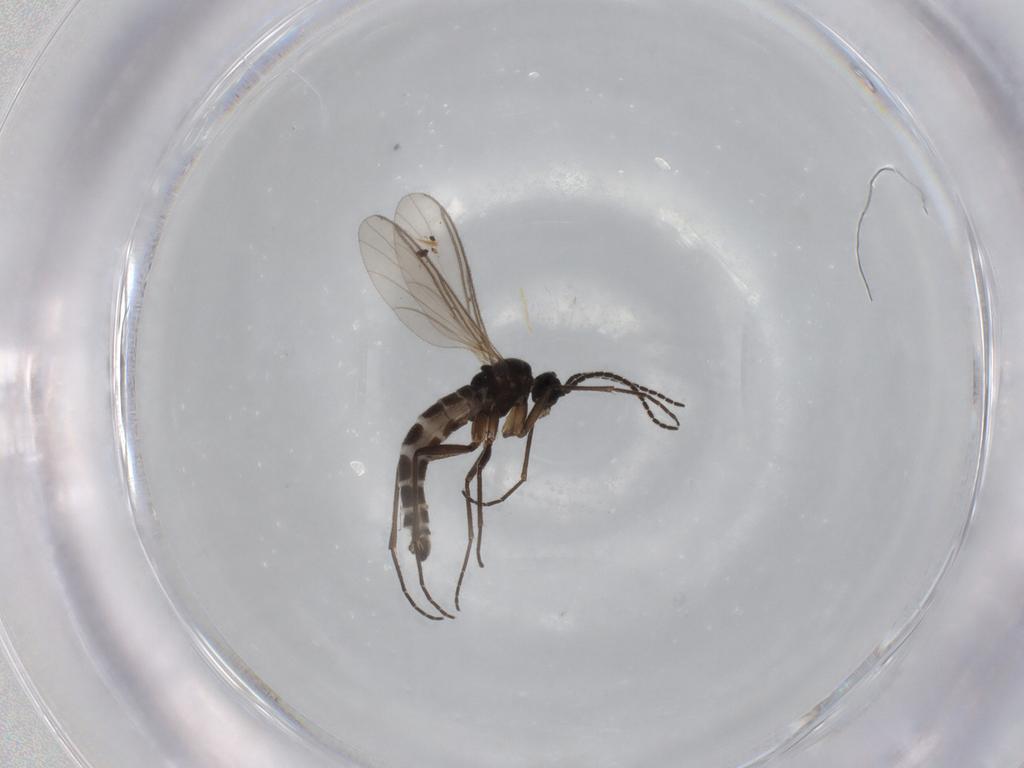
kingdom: Animalia
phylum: Arthropoda
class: Insecta
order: Diptera
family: Sciaridae
